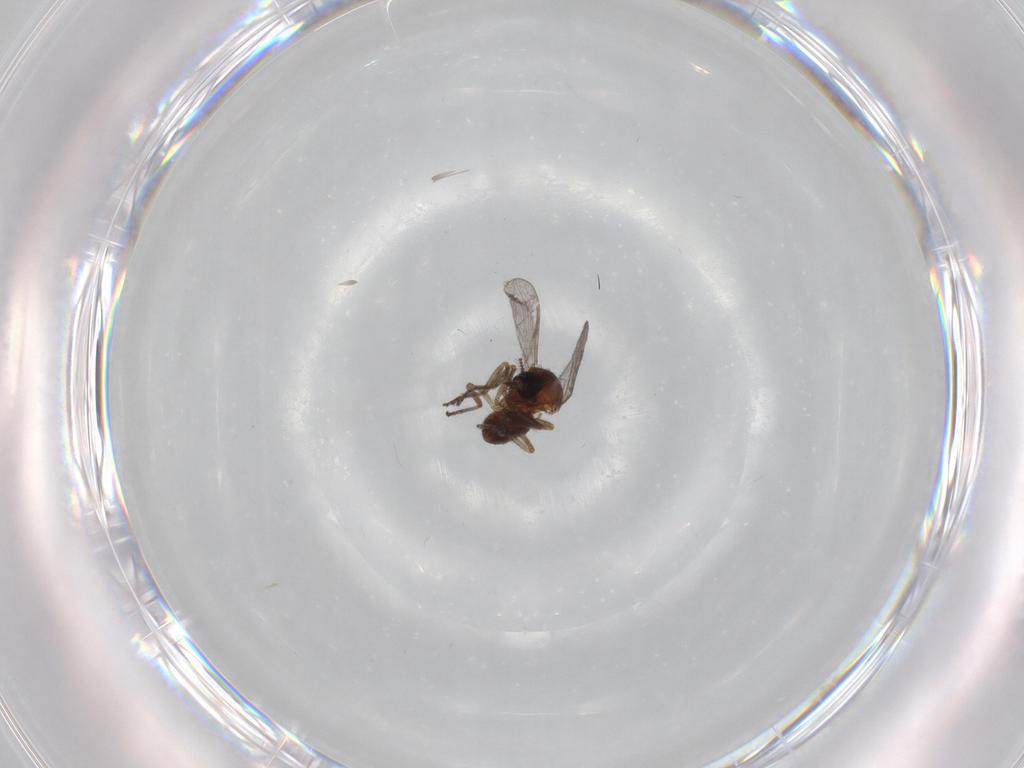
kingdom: Animalia
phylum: Arthropoda
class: Insecta
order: Diptera
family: Ceratopogonidae
